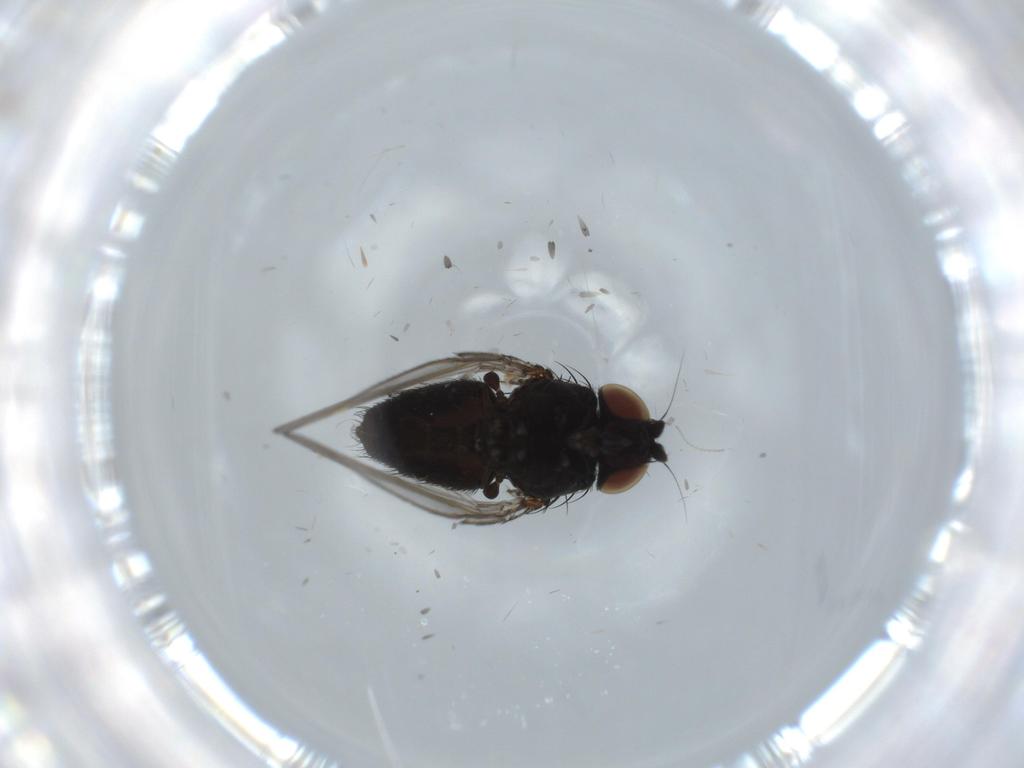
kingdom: Animalia
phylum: Arthropoda
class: Insecta
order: Diptera
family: Milichiidae
